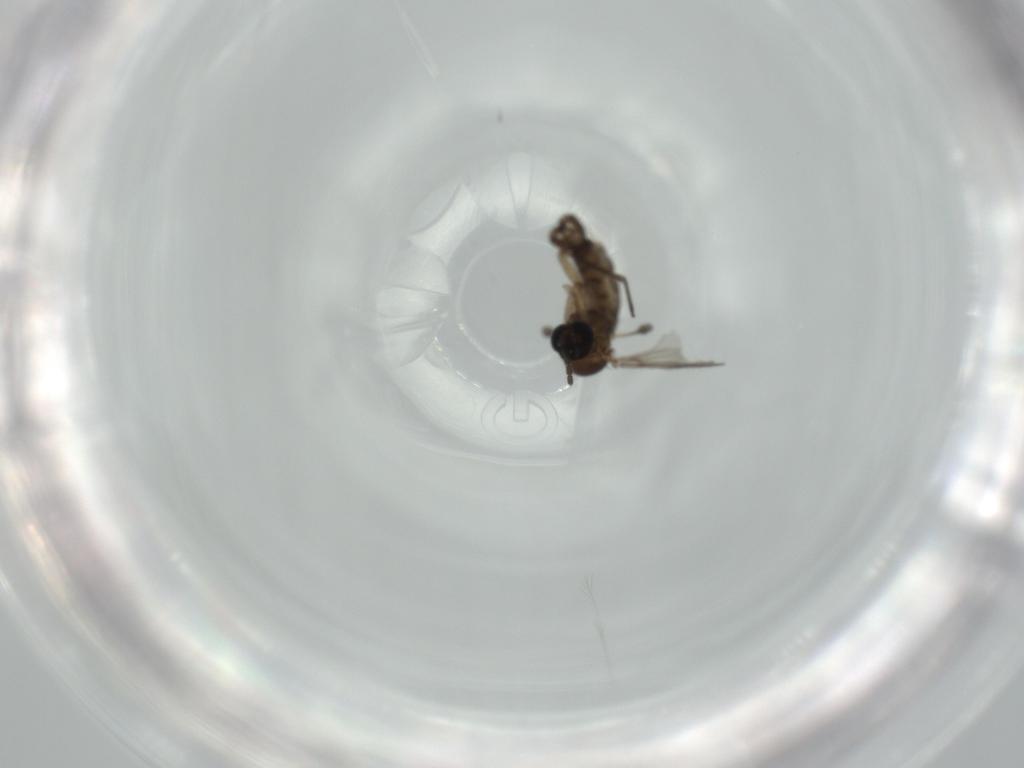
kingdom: Animalia
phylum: Arthropoda
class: Insecta
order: Diptera
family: Sciaridae
